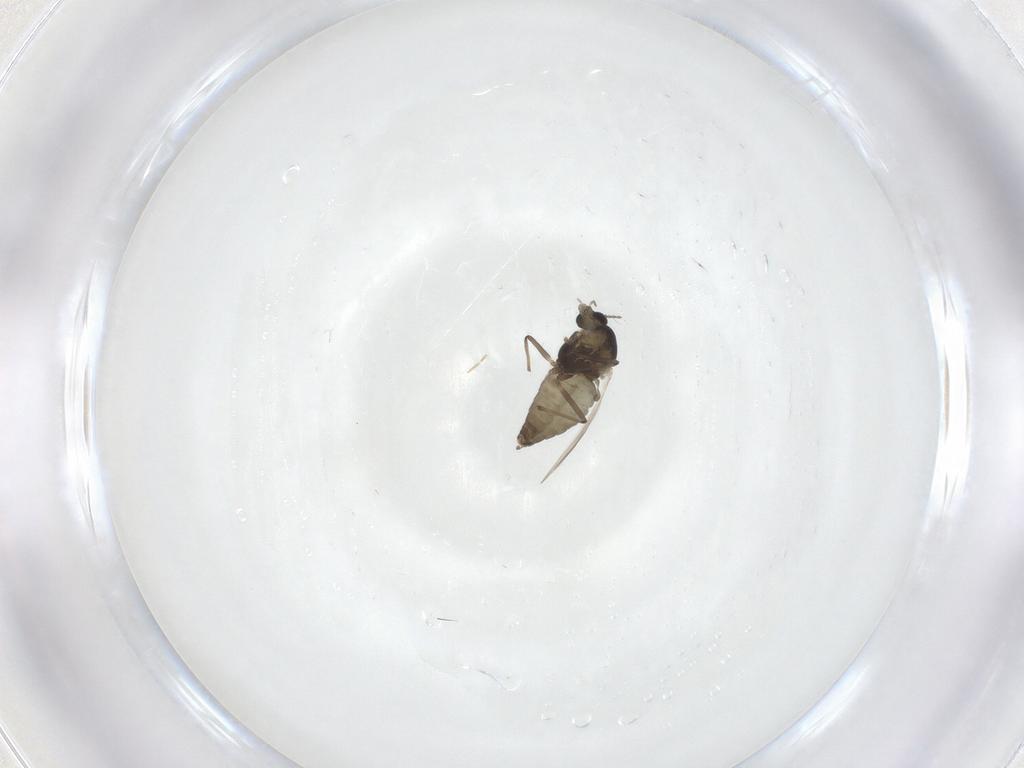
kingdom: Animalia
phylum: Arthropoda
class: Insecta
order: Diptera
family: Chironomidae
